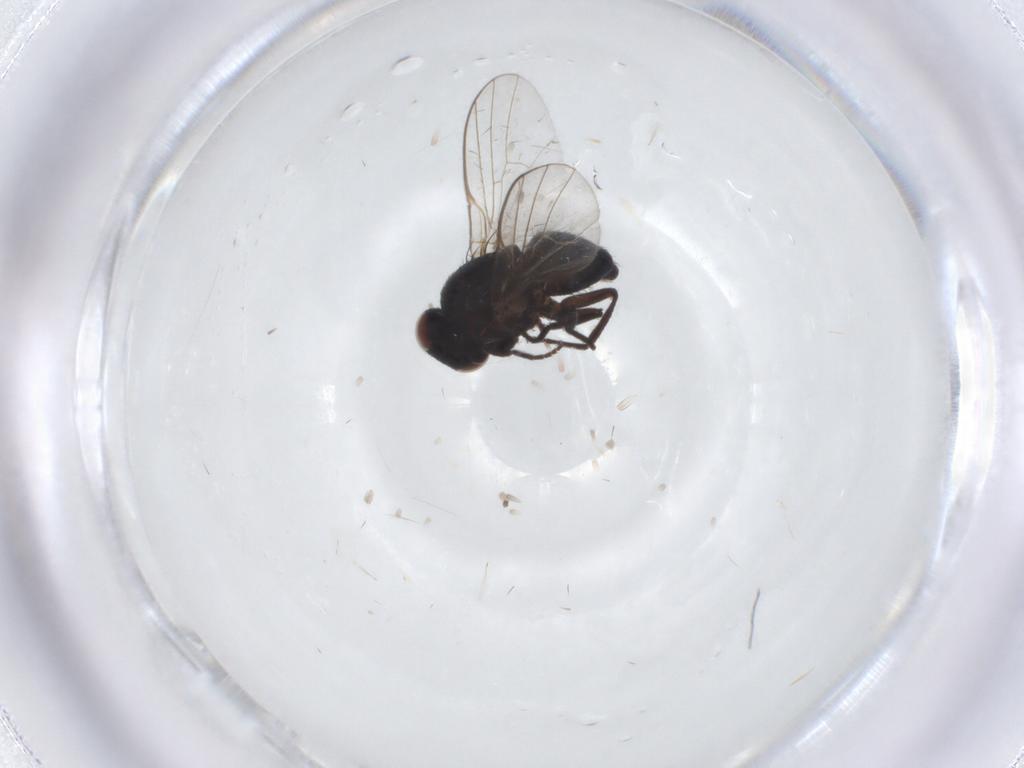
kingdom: Animalia
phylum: Arthropoda
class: Insecta
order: Diptera
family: Agromyzidae
